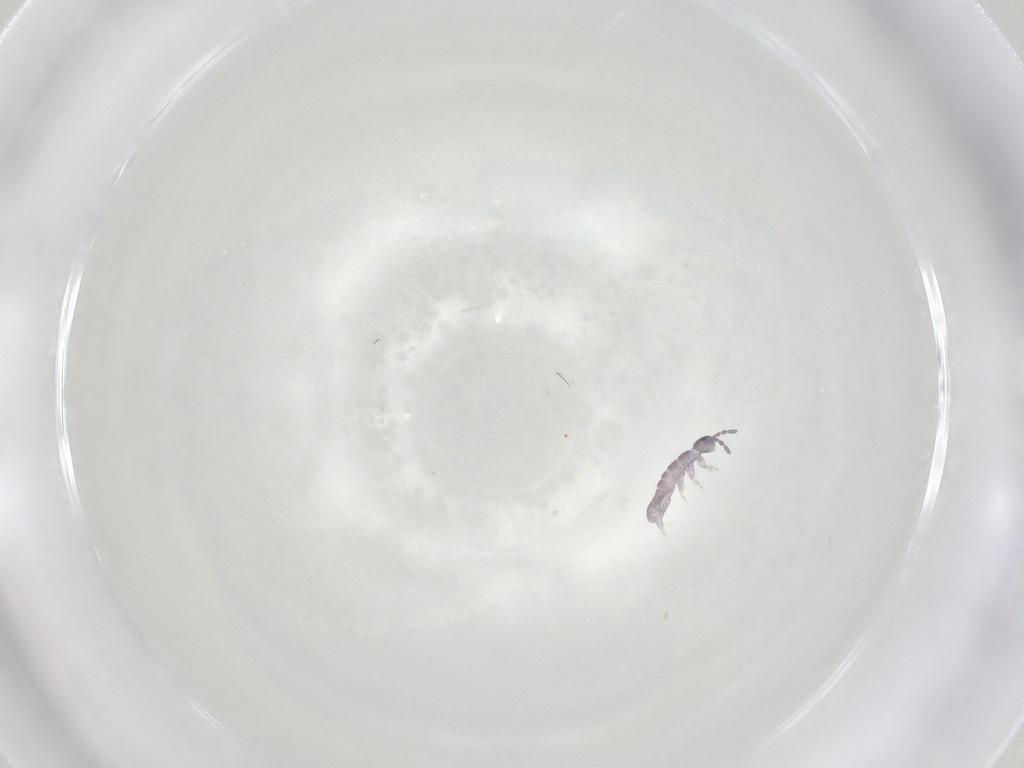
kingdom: Animalia
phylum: Arthropoda
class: Collembola
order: Entomobryomorpha
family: Isotomidae
